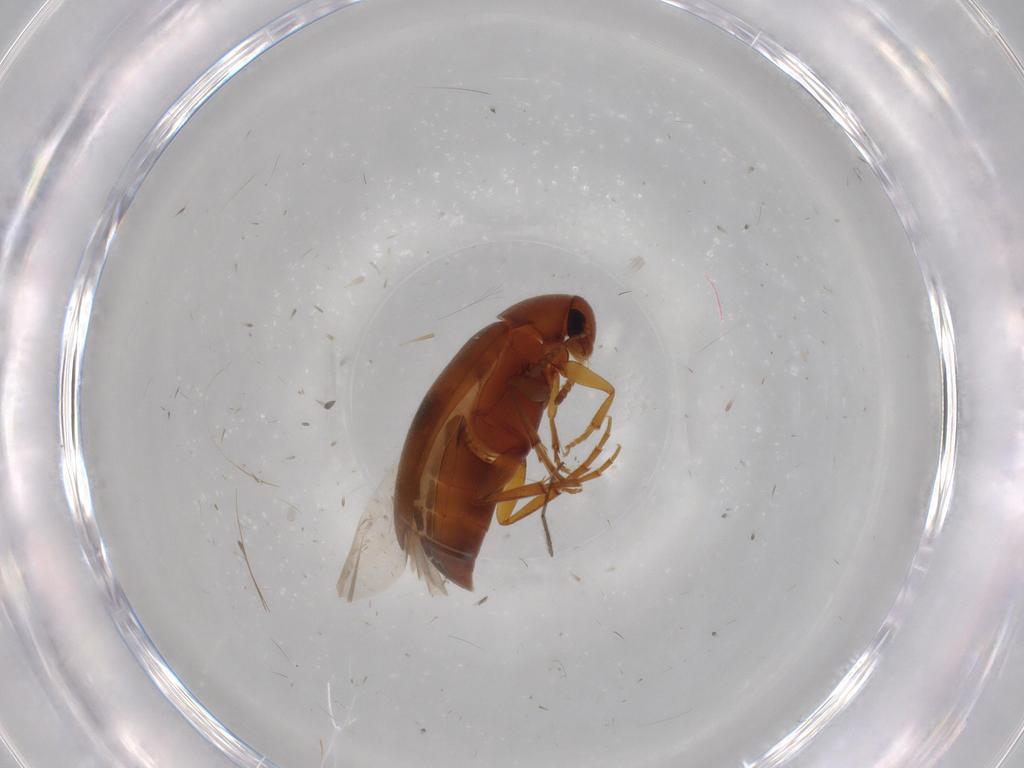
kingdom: Animalia
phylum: Arthropoda
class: Insecta
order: Coleoptera
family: Scraptiidae
